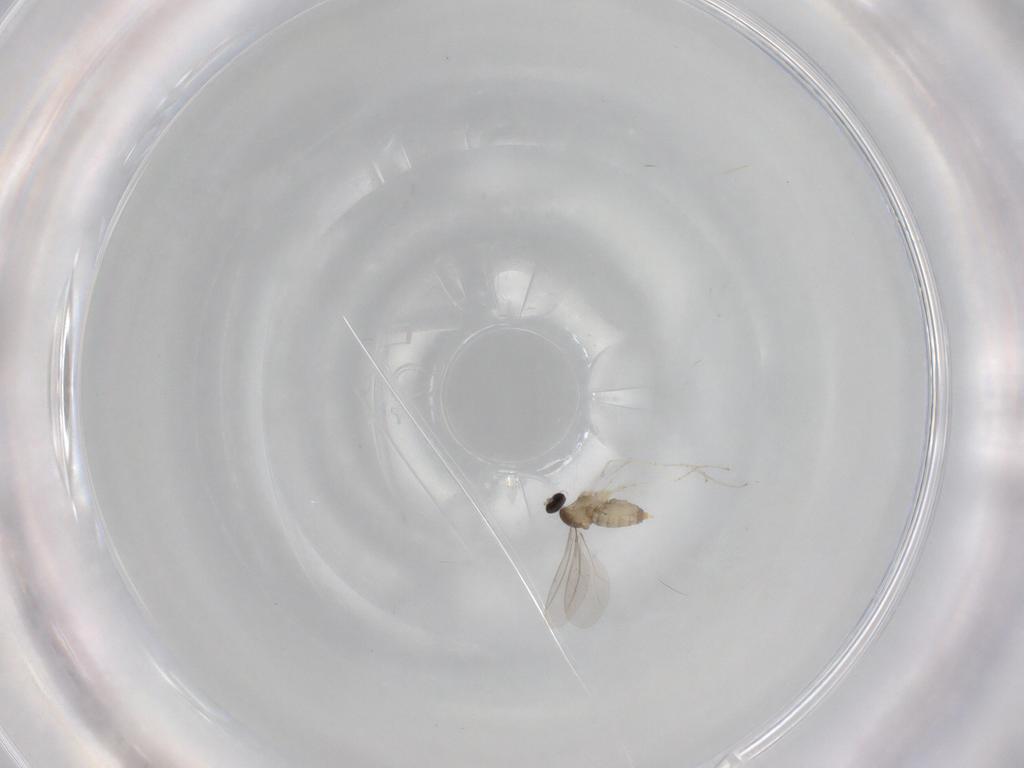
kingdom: Animalia
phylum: Arthropoda
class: Insecta
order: Diptera
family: Cecidomyiidae
